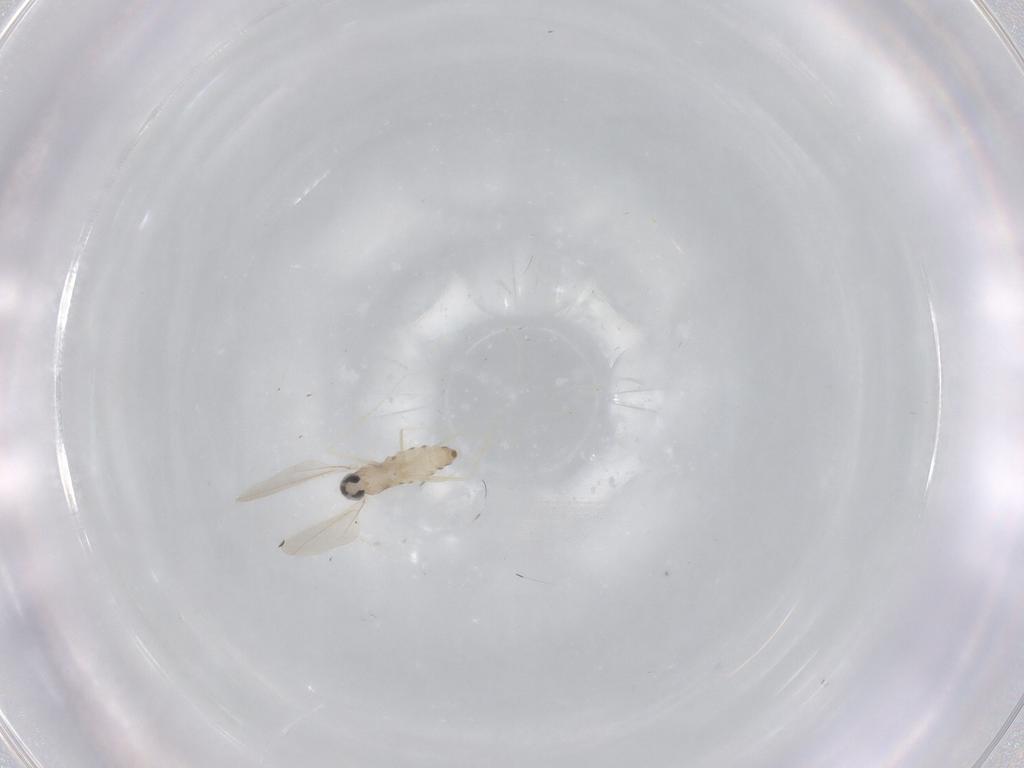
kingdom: Animalia
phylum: Arthropoda
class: Insecta
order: Diptera
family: Cecidomyiidae
